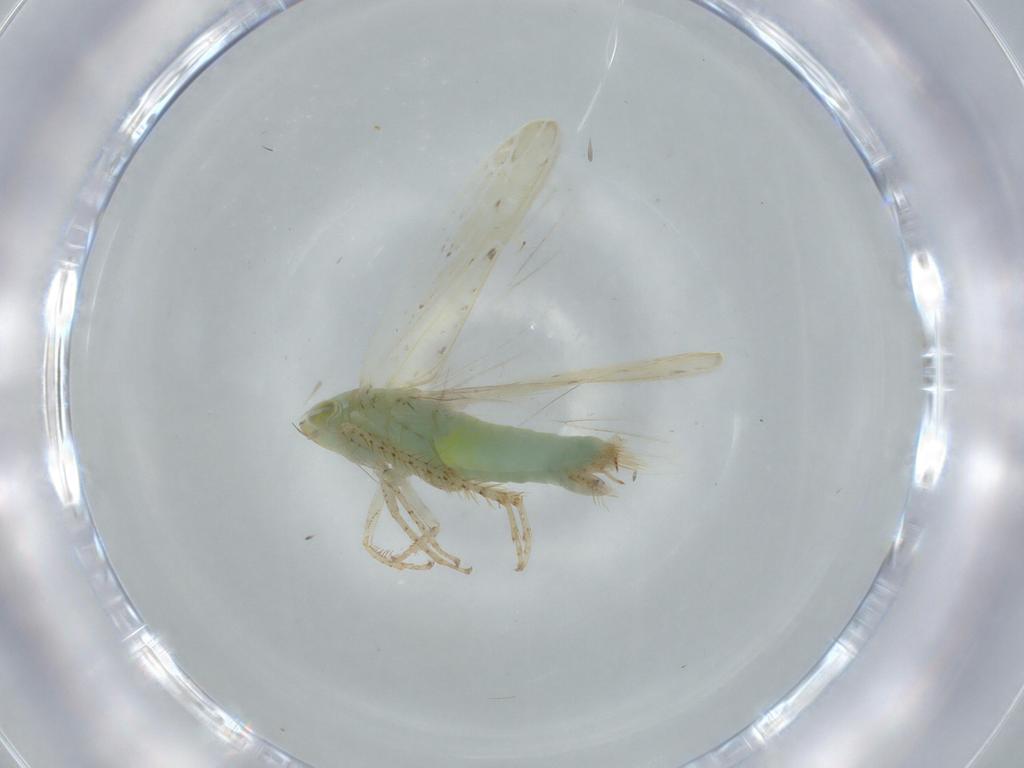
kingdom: Animalia
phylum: Arthropoda
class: Insecta
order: Hemiptera
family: Cicadellidae
